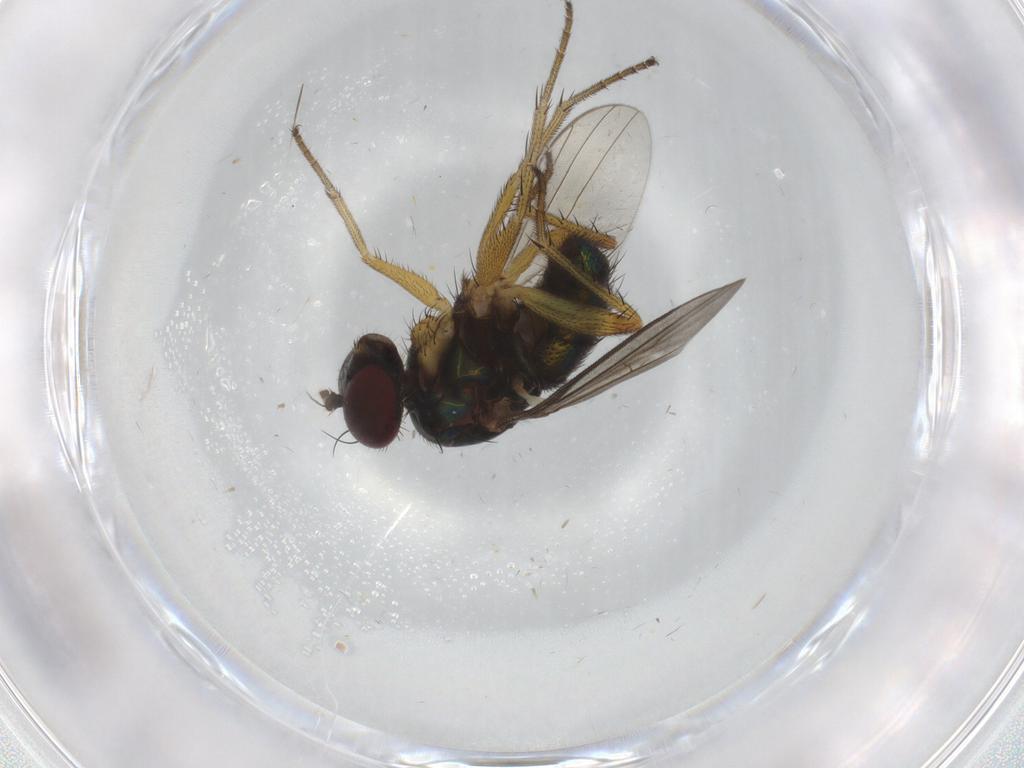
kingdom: Animalia
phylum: Arthropoda
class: Insecta
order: Diptera
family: Dolichopodidae
